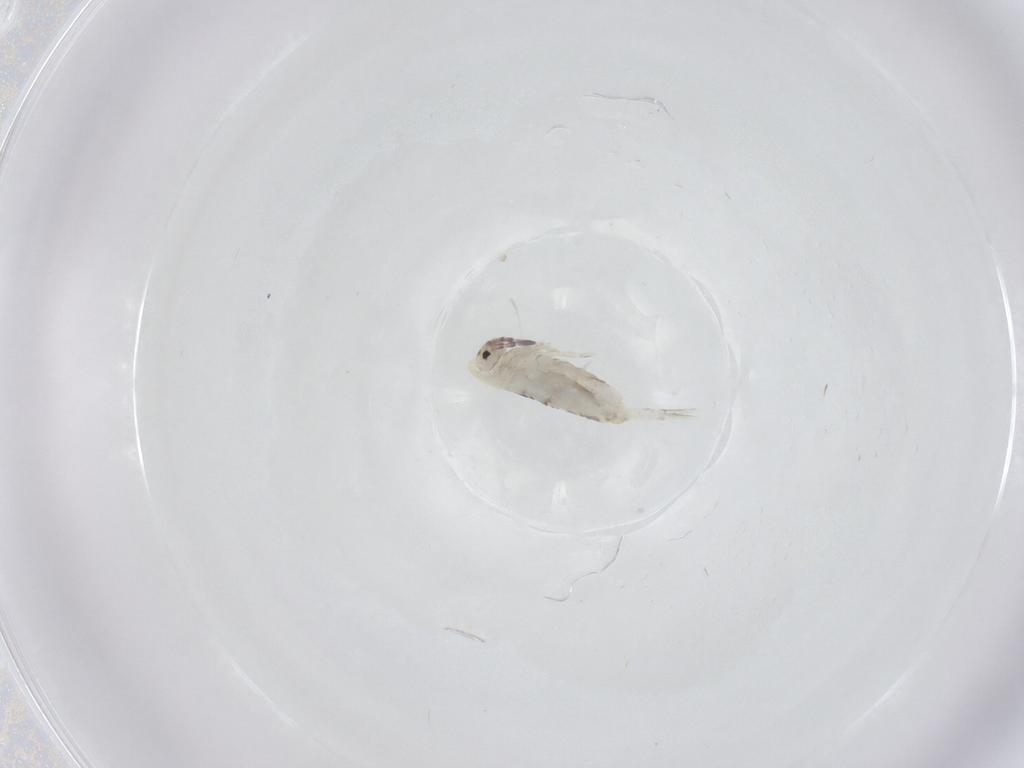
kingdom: Animalia
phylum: Arthropoda
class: Collembola
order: Entomobryomorpha
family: Entomobryidae
